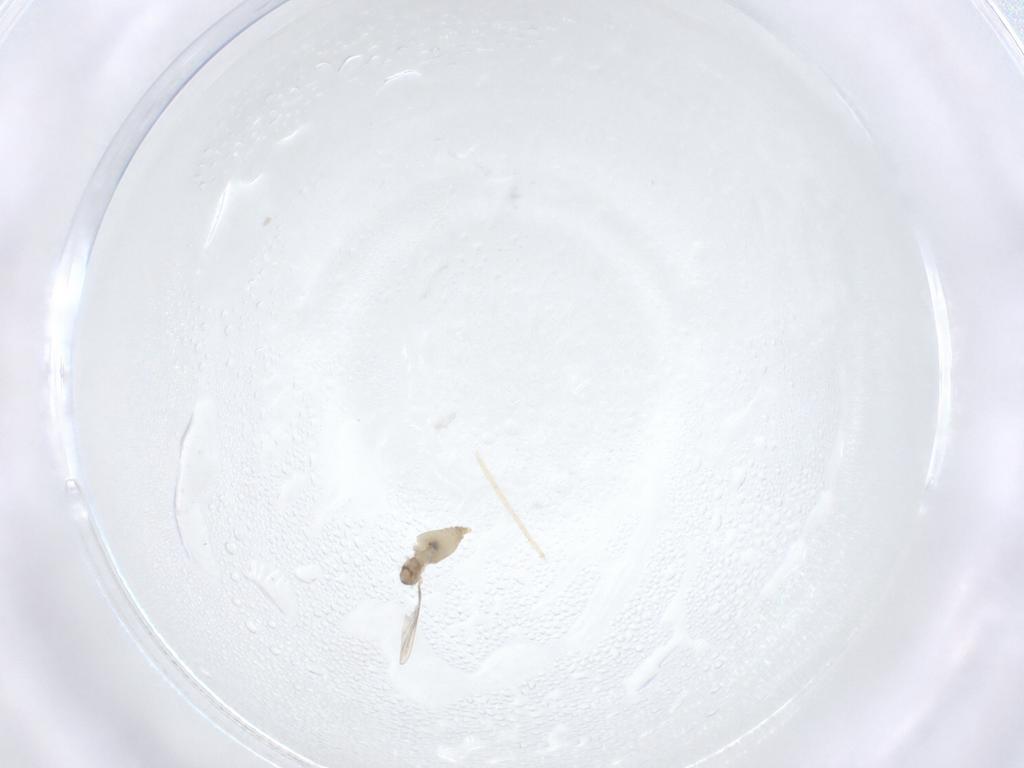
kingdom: Animalia
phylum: Arthropoda
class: Insecta
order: Diptera
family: Cecidomyiidae
